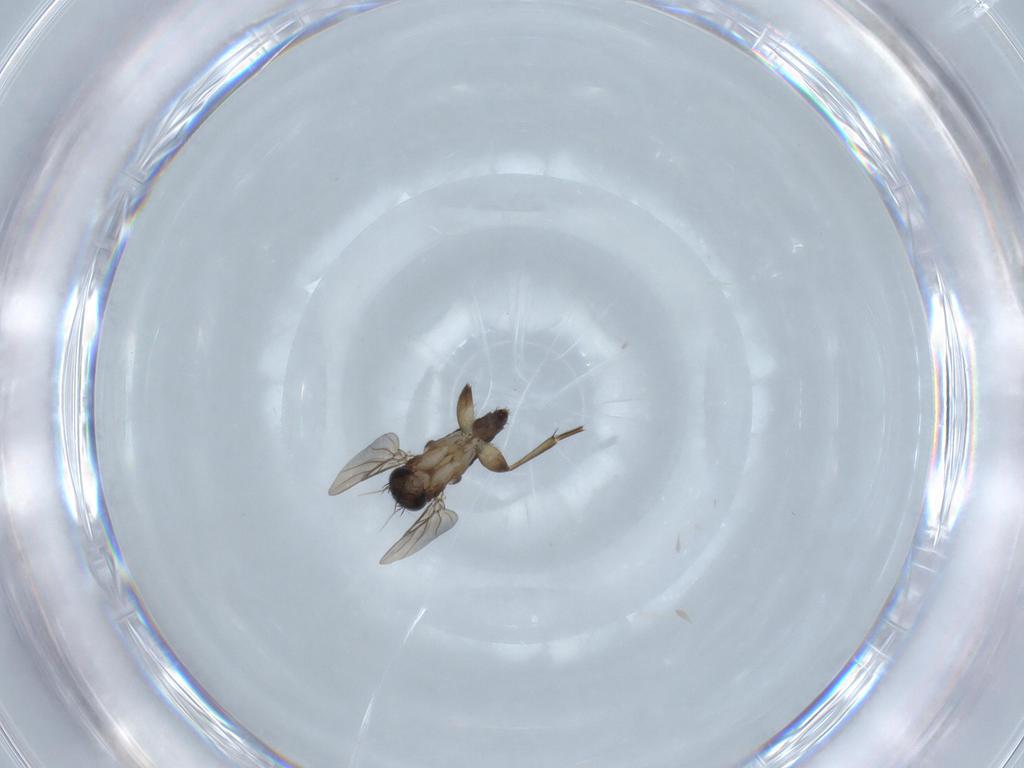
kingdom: Animalia
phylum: Arthropoda
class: Insecta
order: Diptera
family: Phoridae
